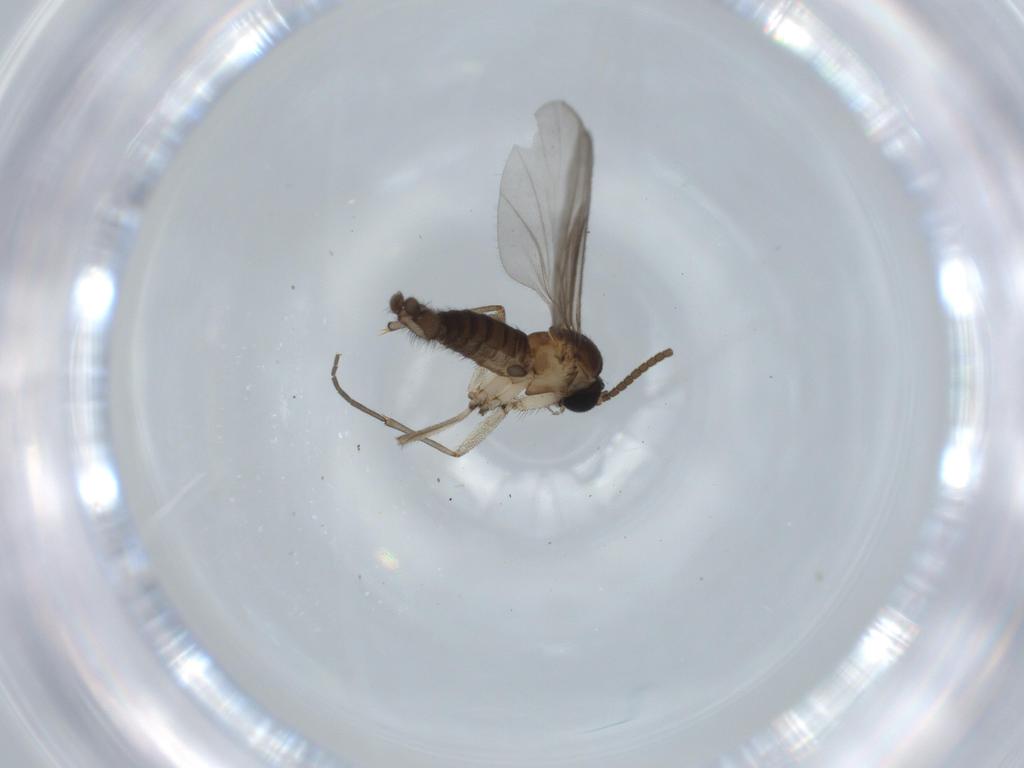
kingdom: Animalia
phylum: Arthropoda
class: Insecta
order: Diptera
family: Sciaridae
